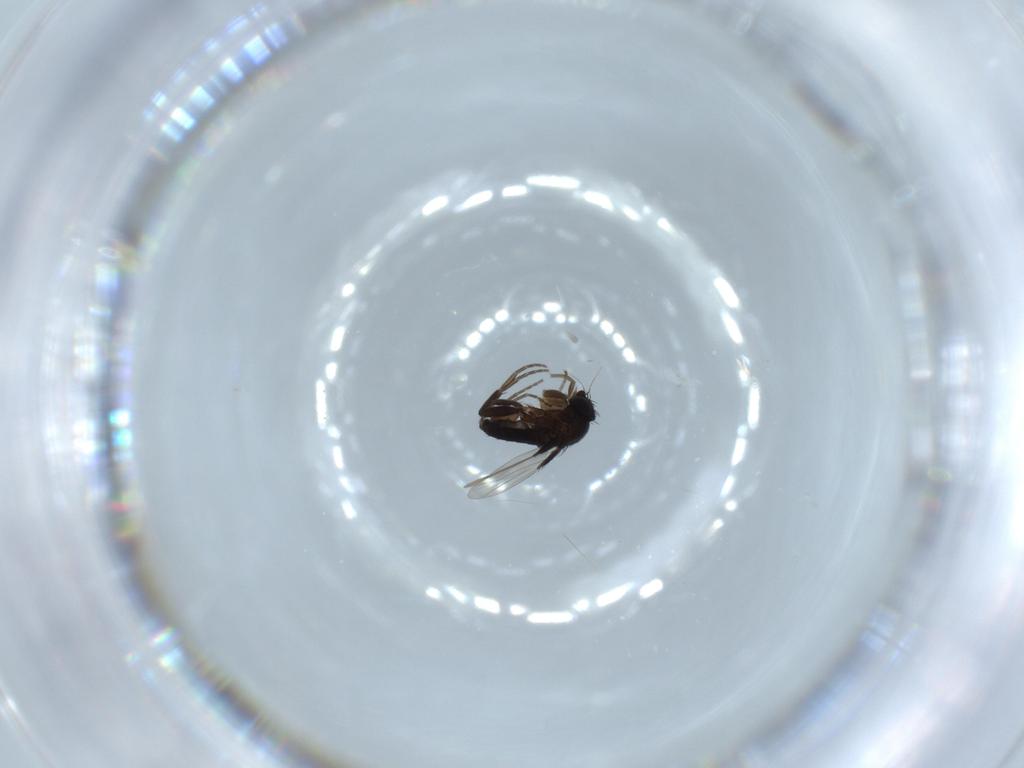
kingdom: Animalia
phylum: Arthropoda
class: Insecta
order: Diptera
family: Phoridae
